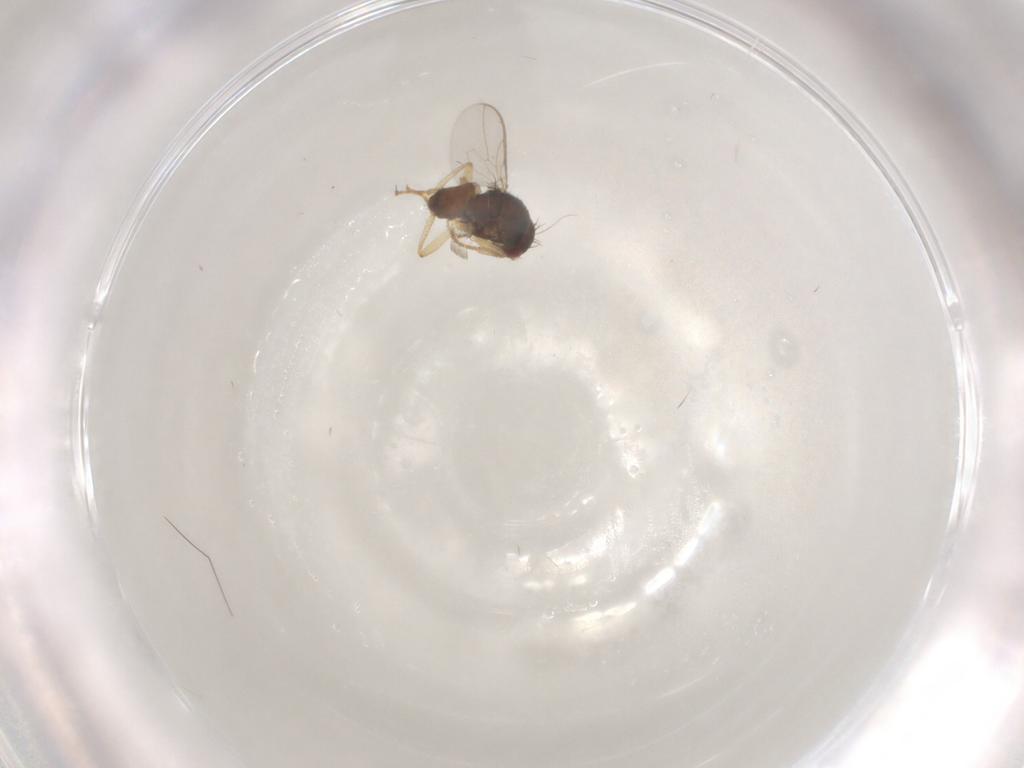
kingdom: Animalia
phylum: Arthropoda
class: Insecta
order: Diptera
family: Sphaeroceridae
